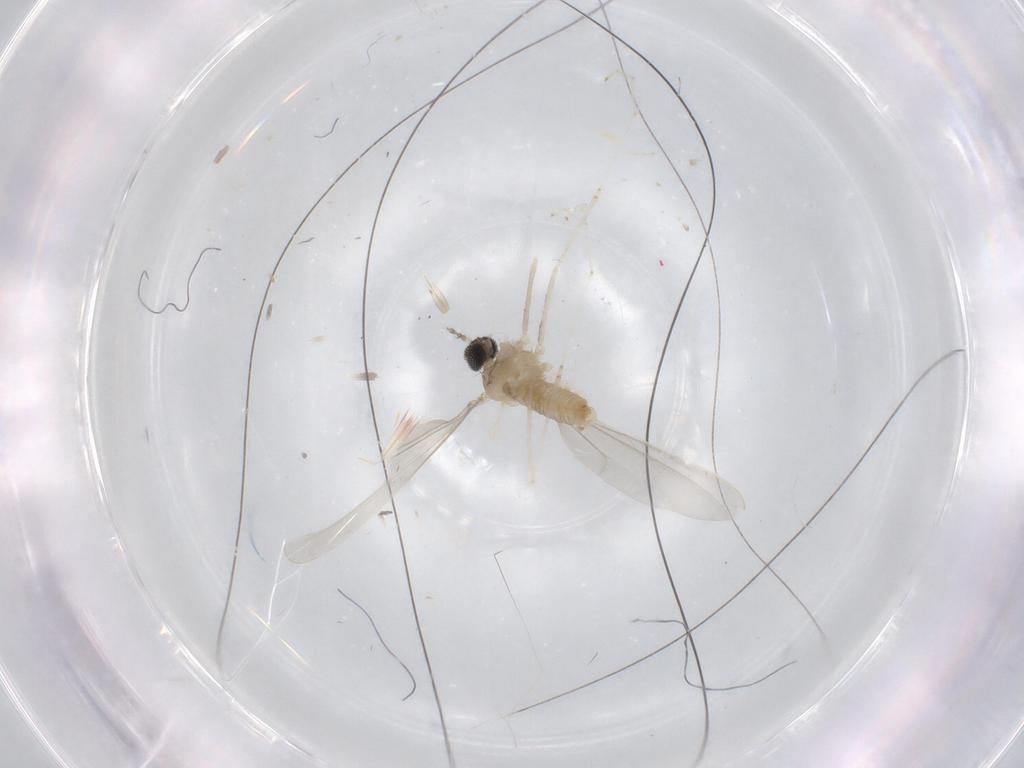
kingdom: Animalia
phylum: Arthropoda
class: Insecta
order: Diptera
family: Cecidomyiidae
